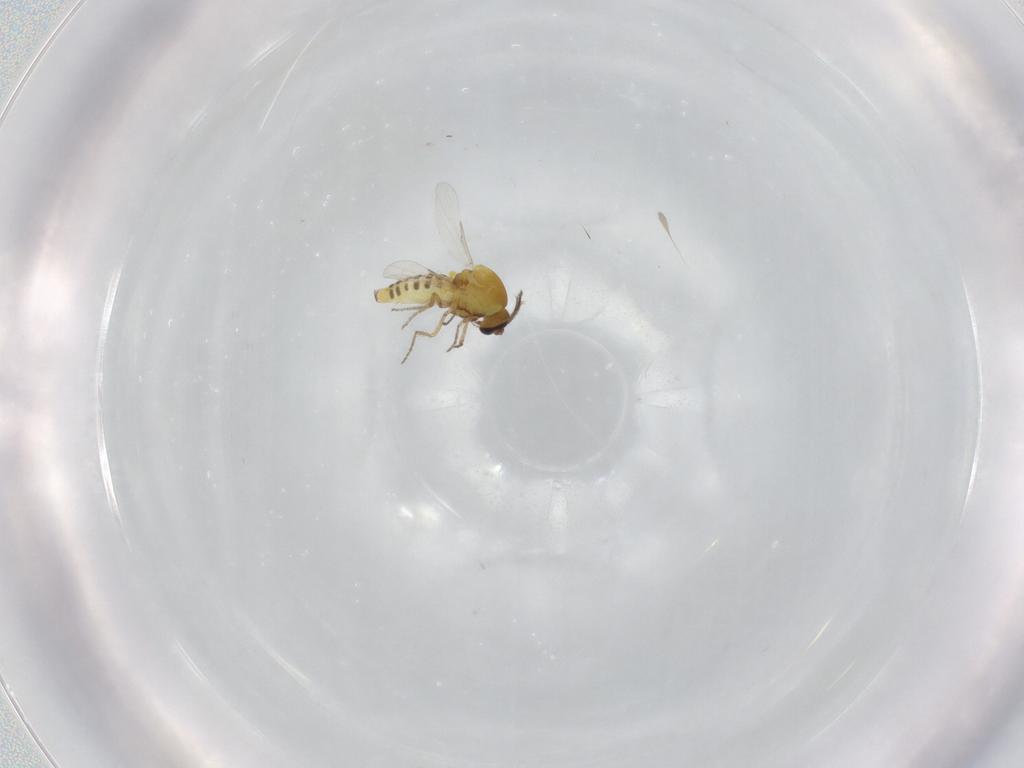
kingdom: Animalia
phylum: Arthropoda
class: Insecta
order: Diptera
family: Ceratopogonidae
